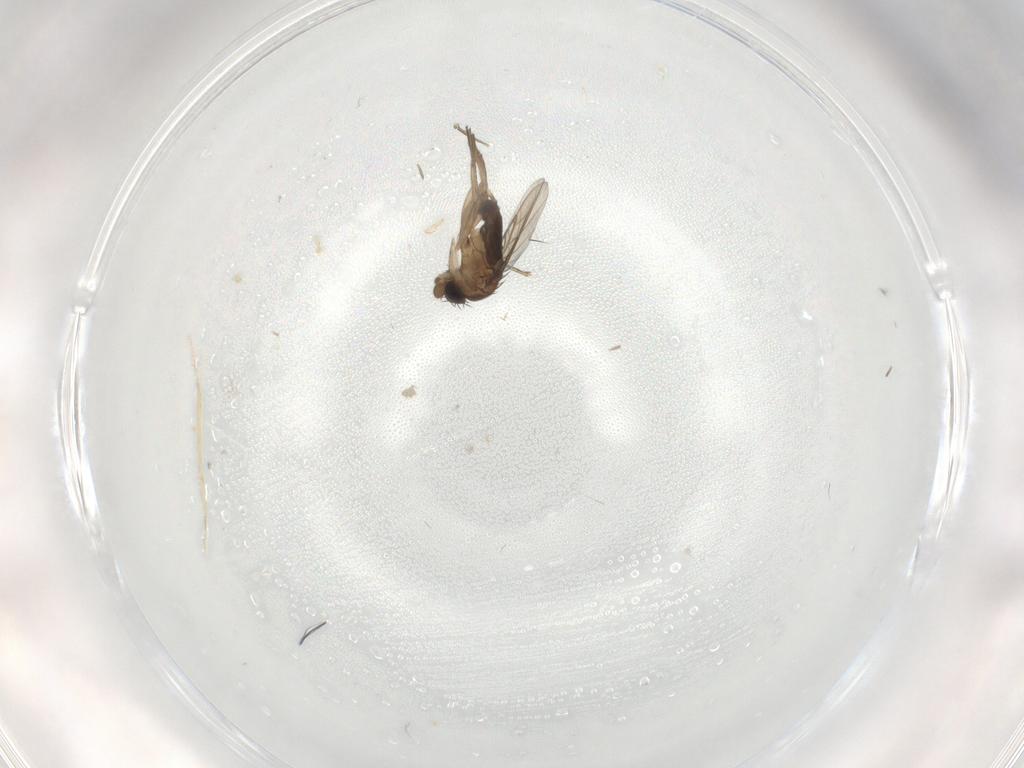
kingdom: Animalia
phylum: Arthropoda
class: Insecta
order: Diptera
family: Phoridae
